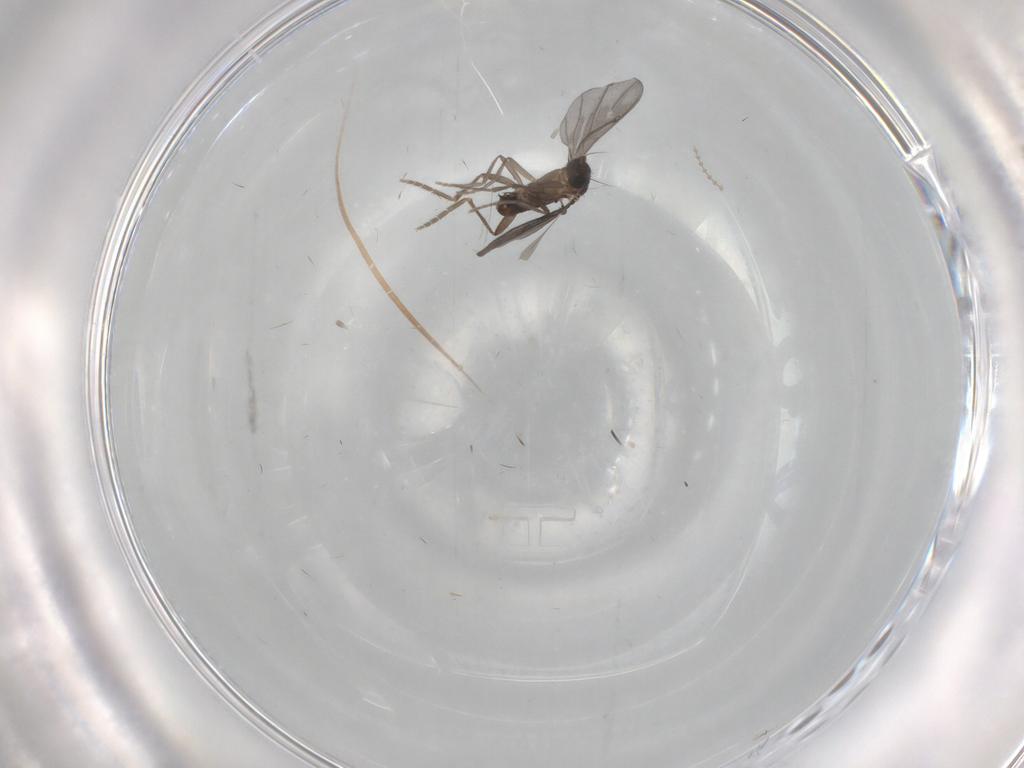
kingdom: Animalia
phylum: Arthropoda
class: Insecta
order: Diptera
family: Phoridae
